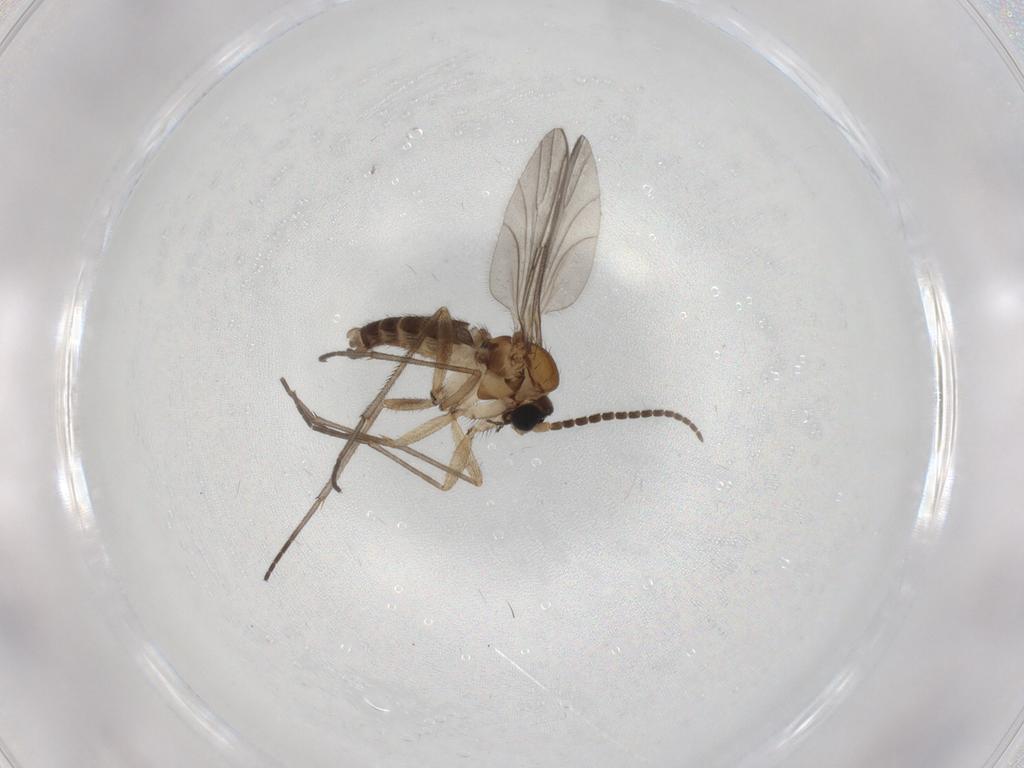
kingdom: Animalia
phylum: Arthropoda
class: Insecta
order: Diptera
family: Sciaridae
